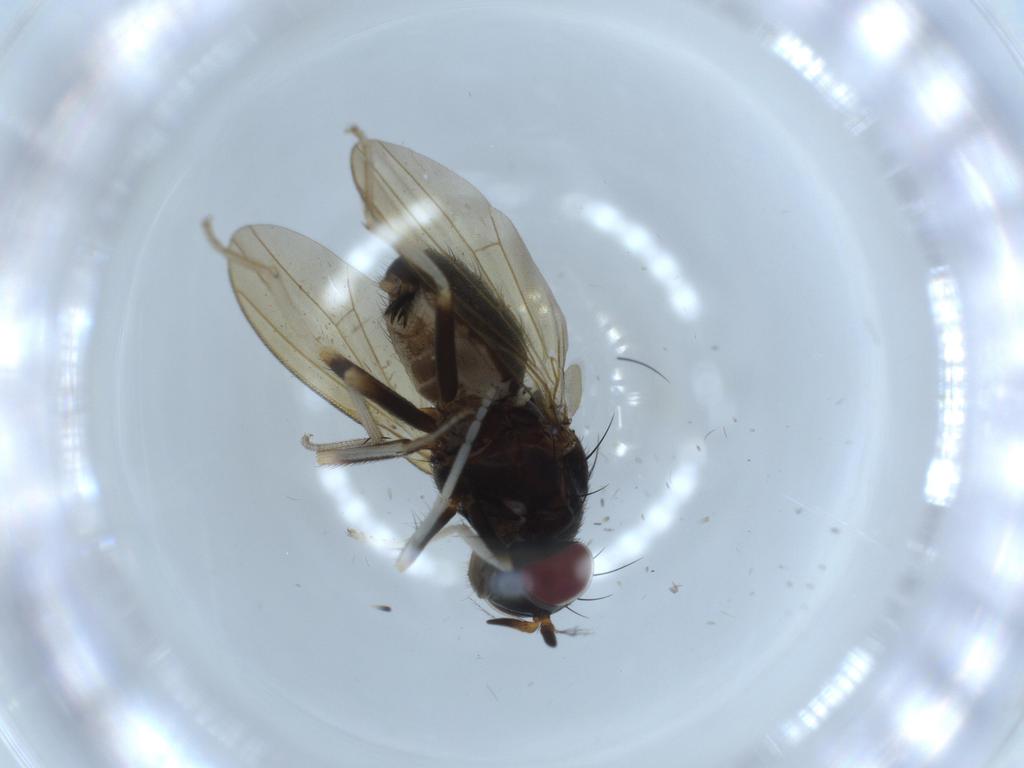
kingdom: Animalia
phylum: Arthropoda
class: Insecta
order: Diptera
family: Lauxaniidae
